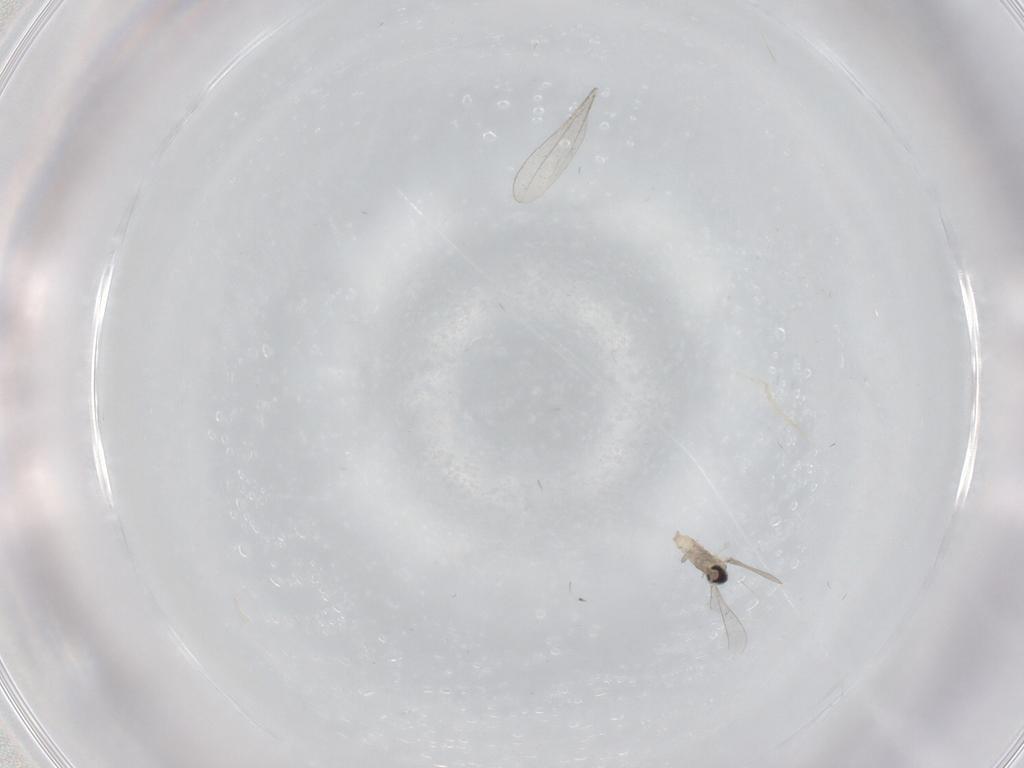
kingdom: Animalia
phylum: Arthropoda
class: Insecta
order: Diptera
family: Cecidomyiidae
